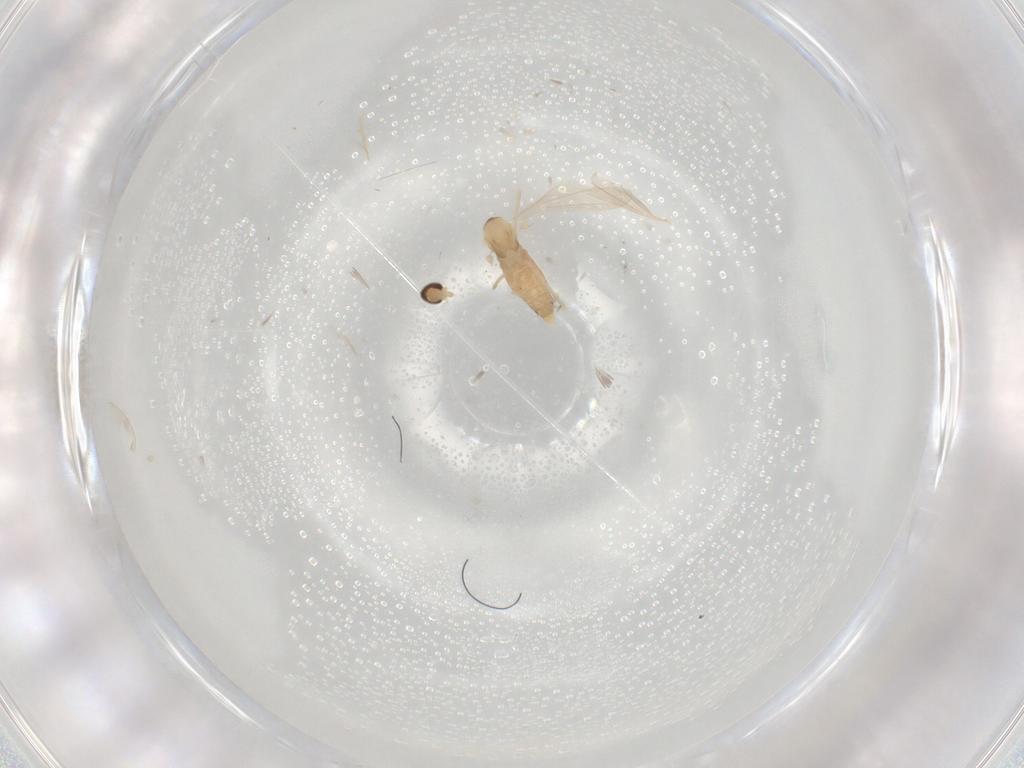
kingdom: Animalia
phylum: Arthropoda
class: Insecta
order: Diptera
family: Cecidomyiidae
